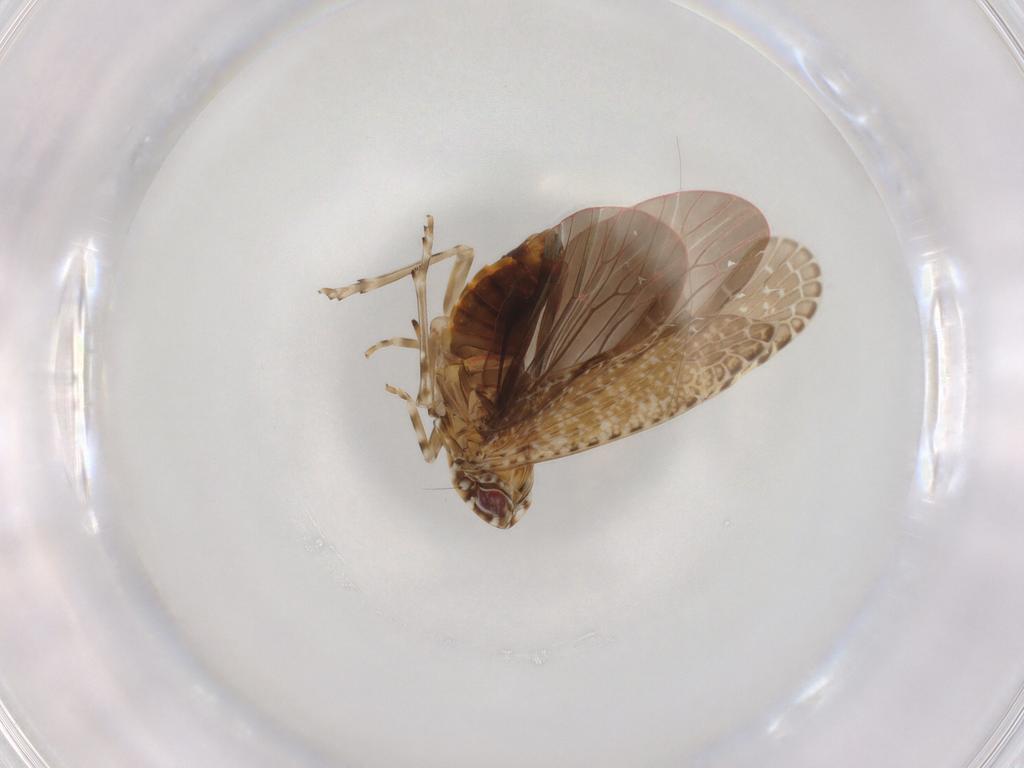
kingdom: Animalia
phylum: Arthropoda
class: Insecta
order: Hemiptera
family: Achilidae
